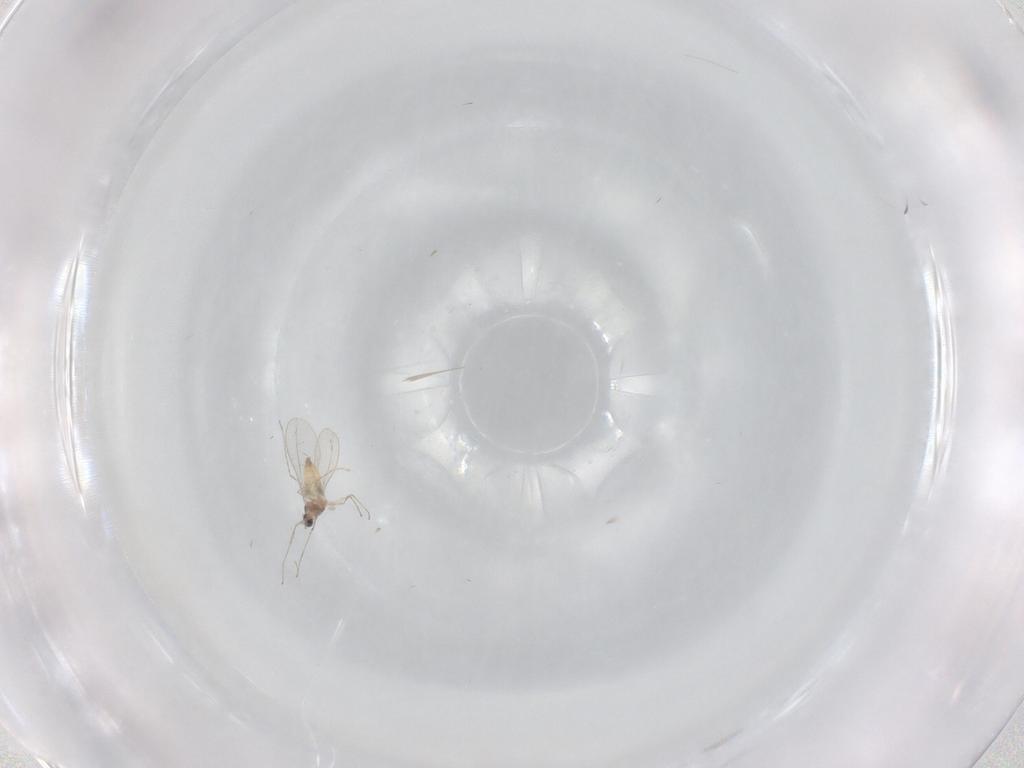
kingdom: Animalia
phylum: Arthropoda
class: Insecta
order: Diptera
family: Cecidomyiidae
